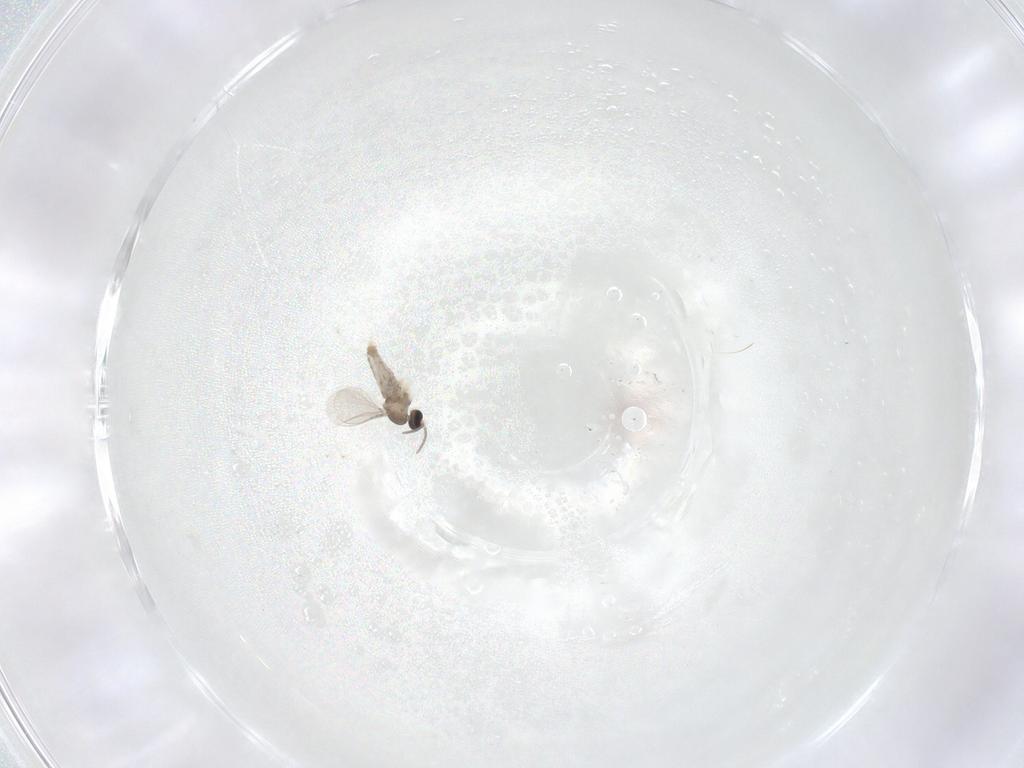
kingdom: Animalia
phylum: Arthropoda
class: Insecta
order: Diptera
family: Cecidomyiidae
